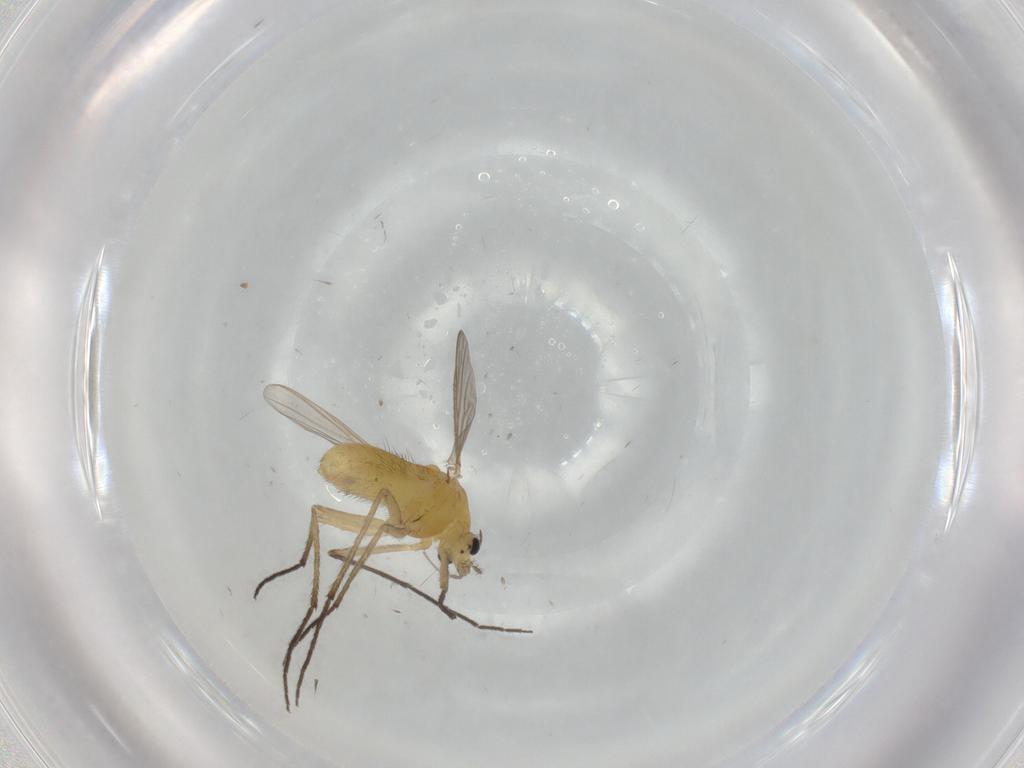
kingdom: Animalia
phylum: Arthropoda
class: Insecta
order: Diptera
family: Chironomidae
